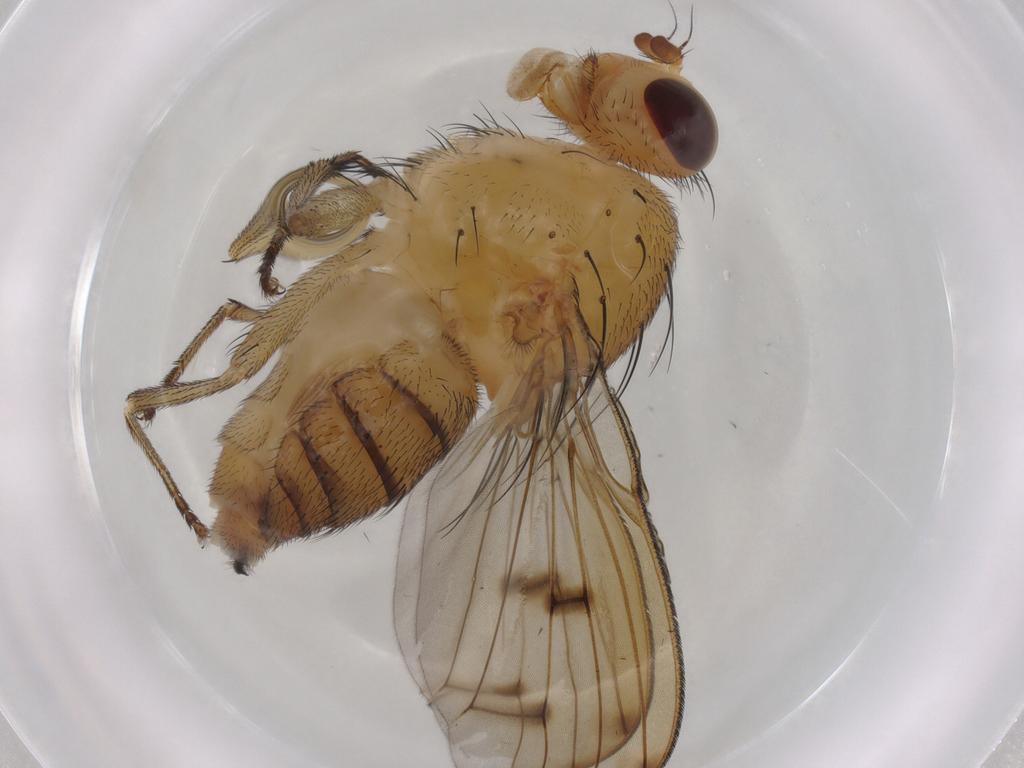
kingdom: Animalia
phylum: Arthropoda
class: Insecta
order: Diptera
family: Lauxaniidae
